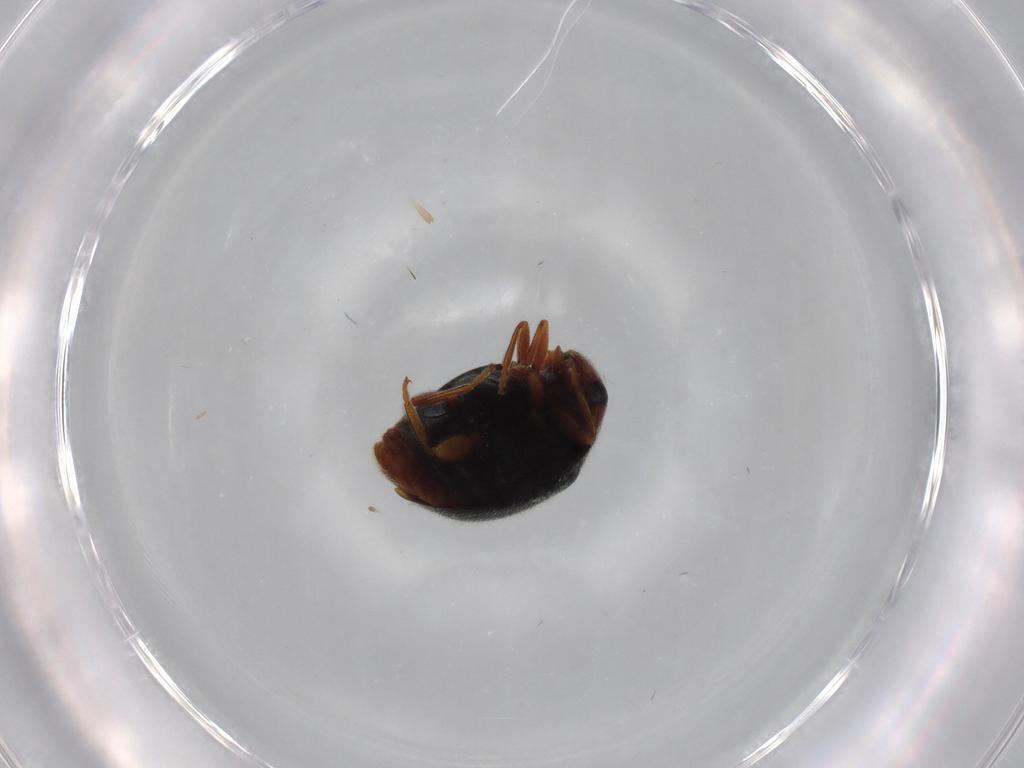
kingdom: Animalia
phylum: Arthropoda
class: Insecta
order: Coleoptera
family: Coccinellidae
